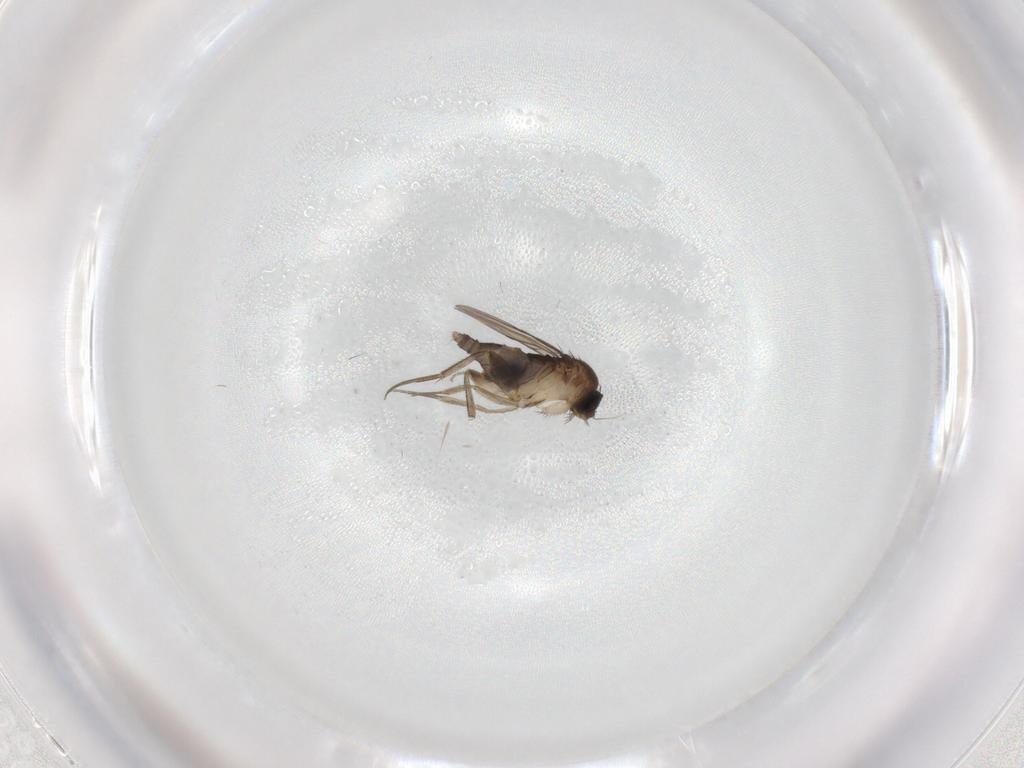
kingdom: Animalia
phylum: Arthropoda
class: Insecta
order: Diptera
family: Phoridae
